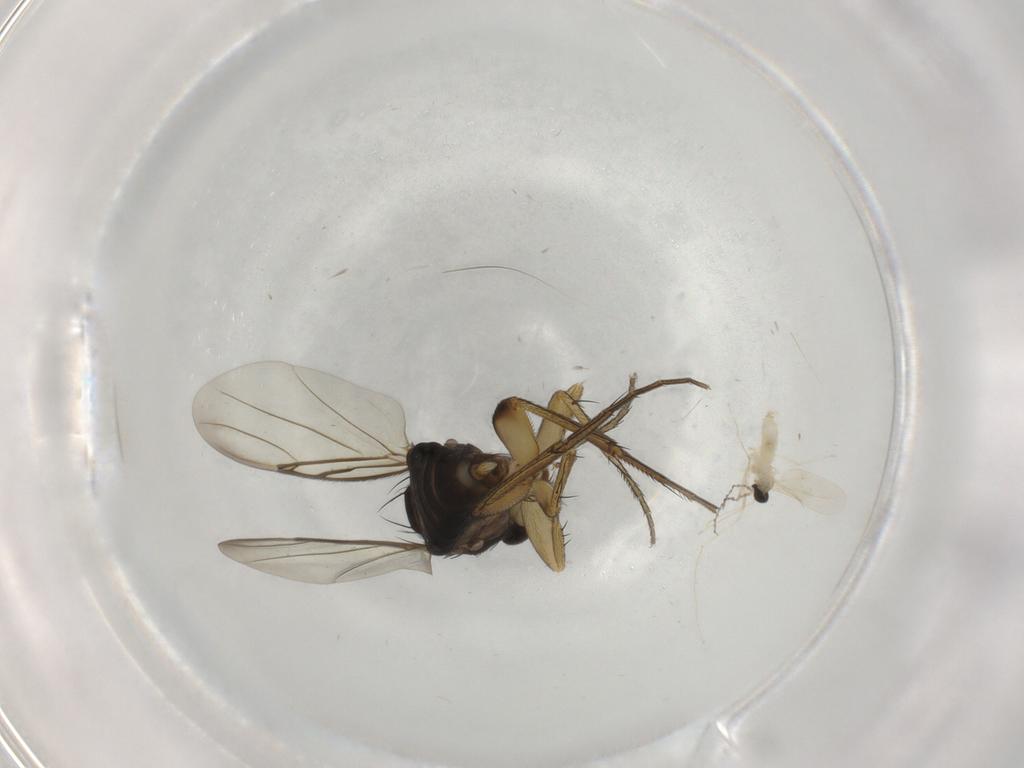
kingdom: Animalia
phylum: Arthropoda
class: Insecta
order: Diptera
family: Phoridae
